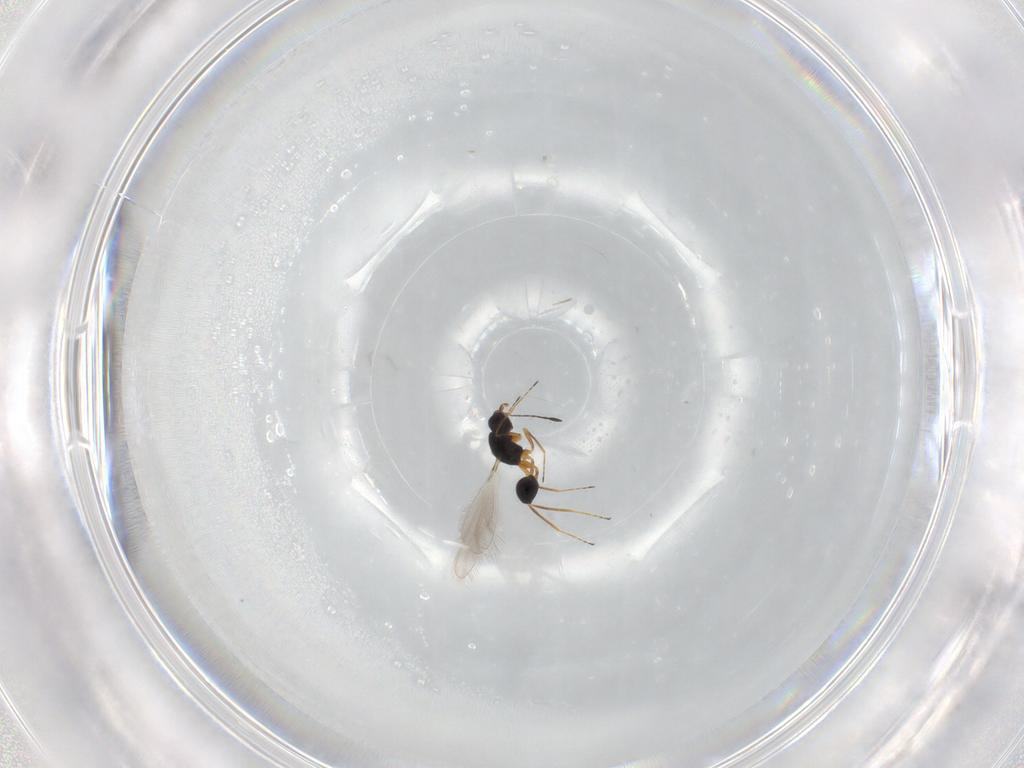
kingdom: Animalia
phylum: Arthropoda
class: Insecta
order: Hymenoptera
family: Mymaridae
